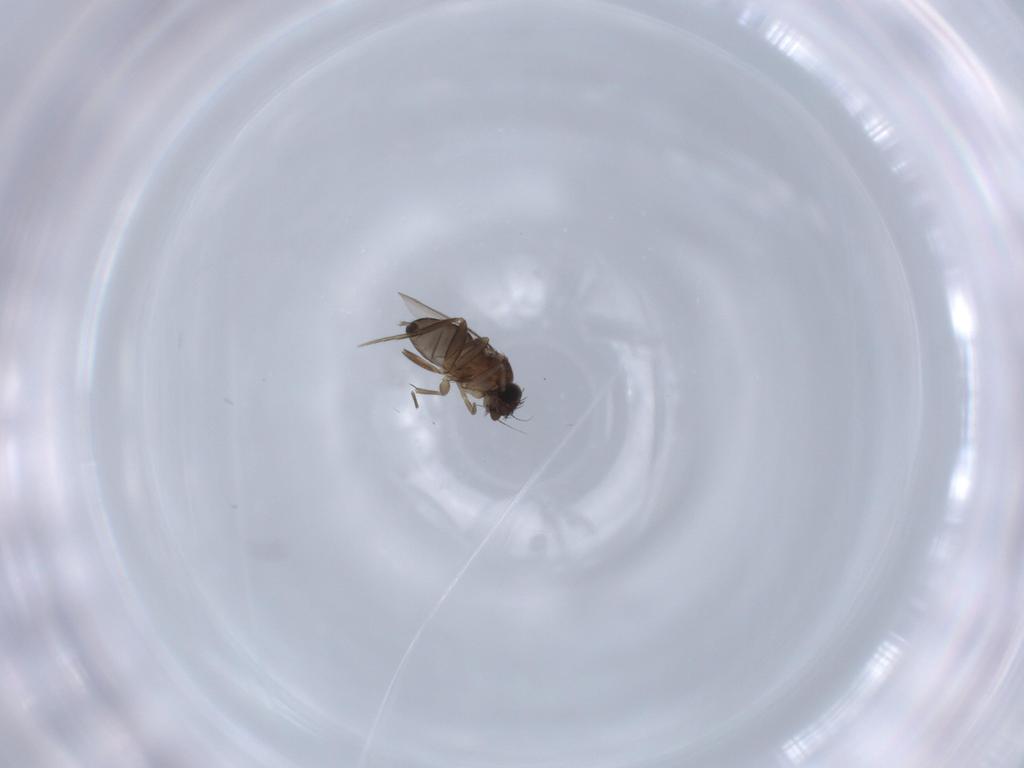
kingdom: Animalia
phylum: Arthropoda
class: Insecta
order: Diptera
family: Phoridae
